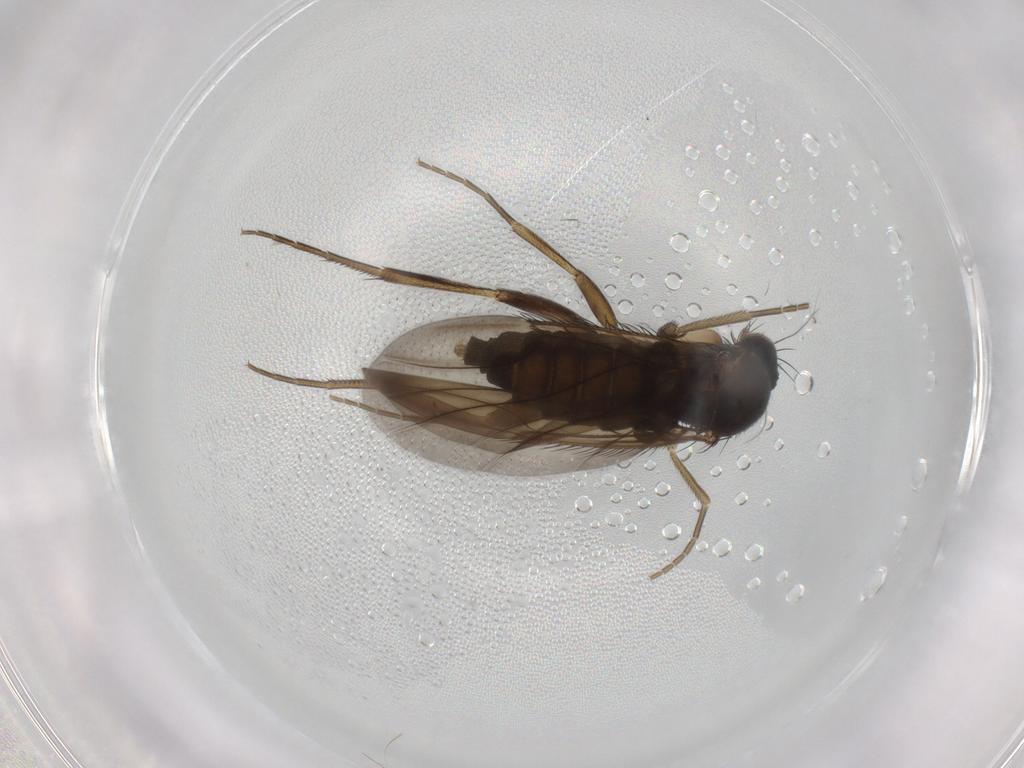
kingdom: Animalia
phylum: Arthropoda
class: Insecta
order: Diptera
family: Phoridae
